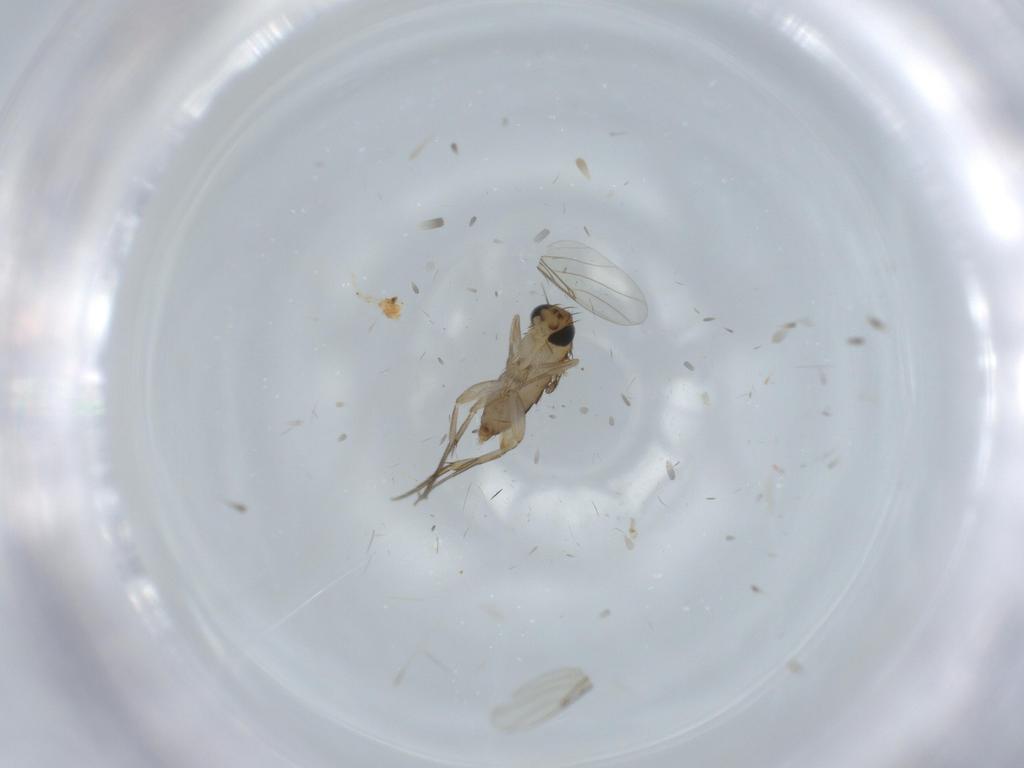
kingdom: Animalia
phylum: Arthropoda
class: Insecta
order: Diptera
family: Phoridae
